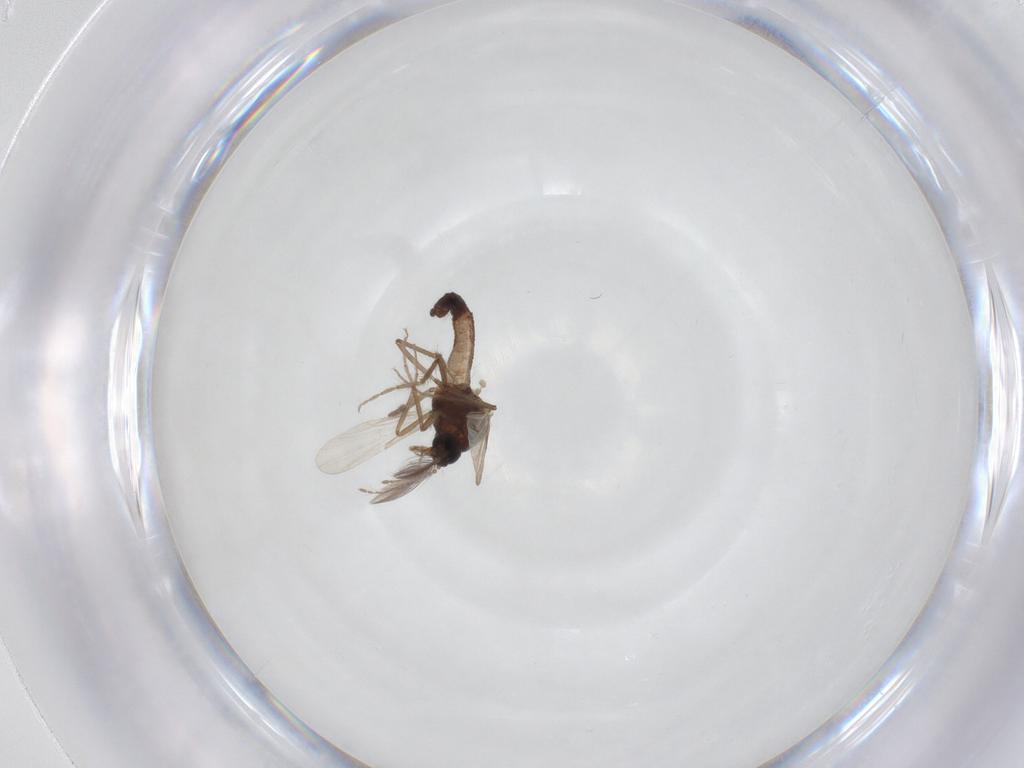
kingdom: Animalia
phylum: Arthropoda
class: Insecta
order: Diptera
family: Ceratopogonidae
